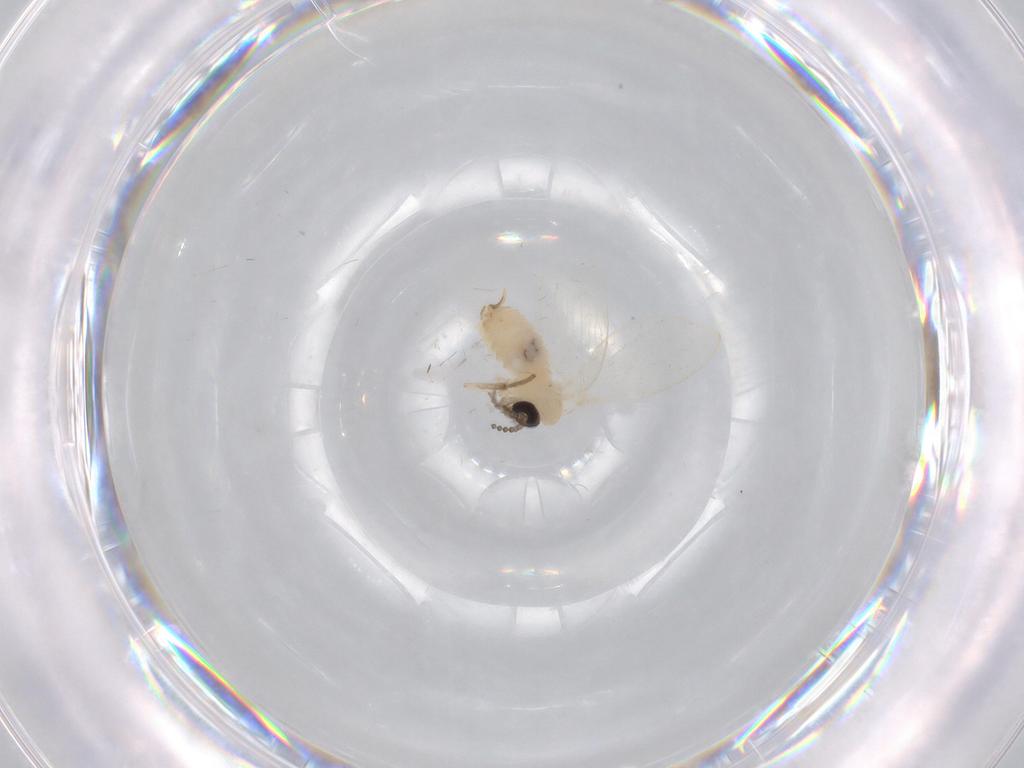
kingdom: Animalia
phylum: Arthropoda
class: Insecta
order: Diptera
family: Psychodidae
